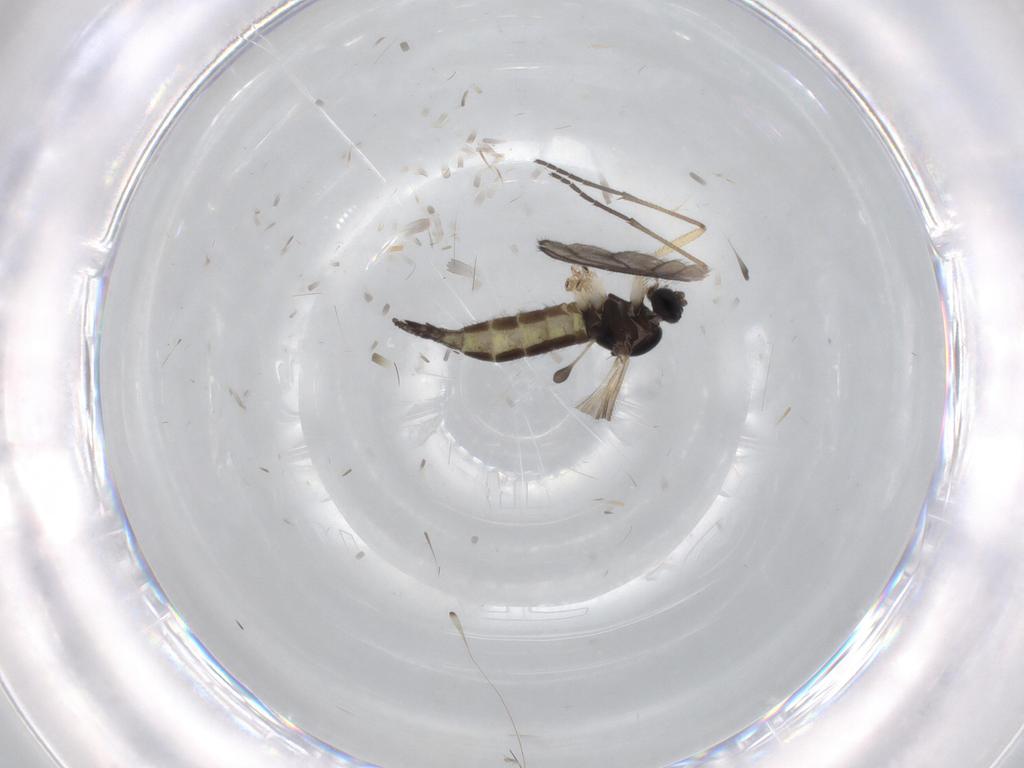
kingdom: Animalia
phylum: Arthropoda
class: Insecta
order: Diptera
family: Sciaridae
